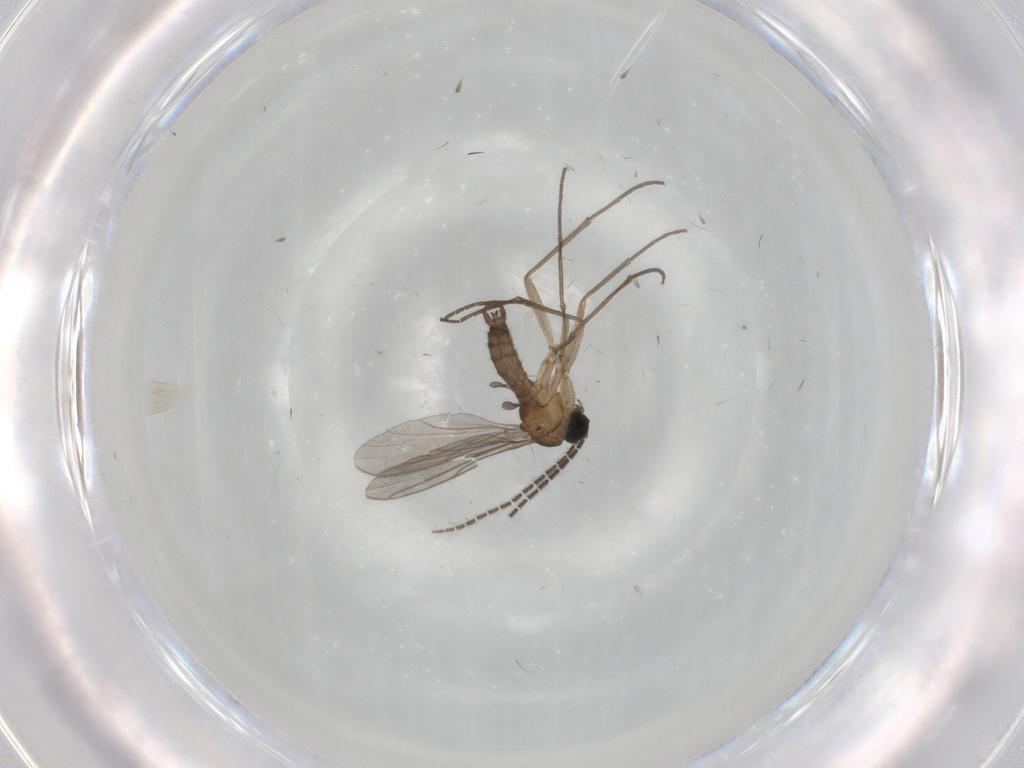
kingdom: Animalia
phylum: Arthropoda
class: Insecta
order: Diptera
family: Sciaridae
